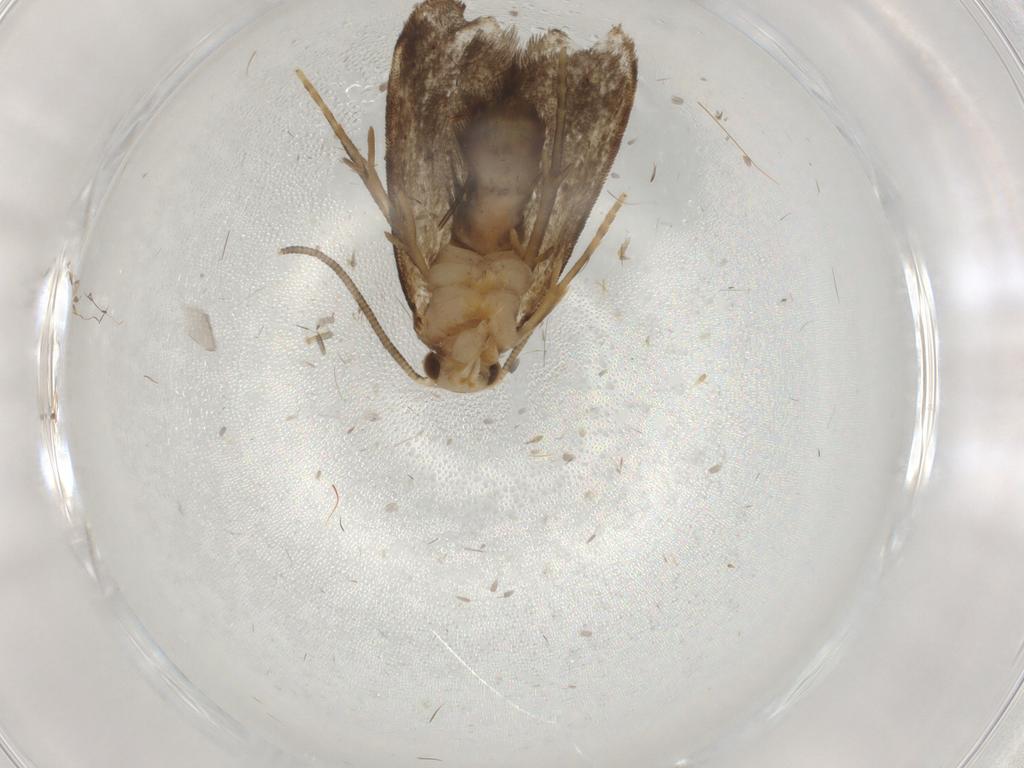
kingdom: Animalia
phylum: Arthropoda
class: Insecta
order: Lepidoptera
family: Dryadaulidae
